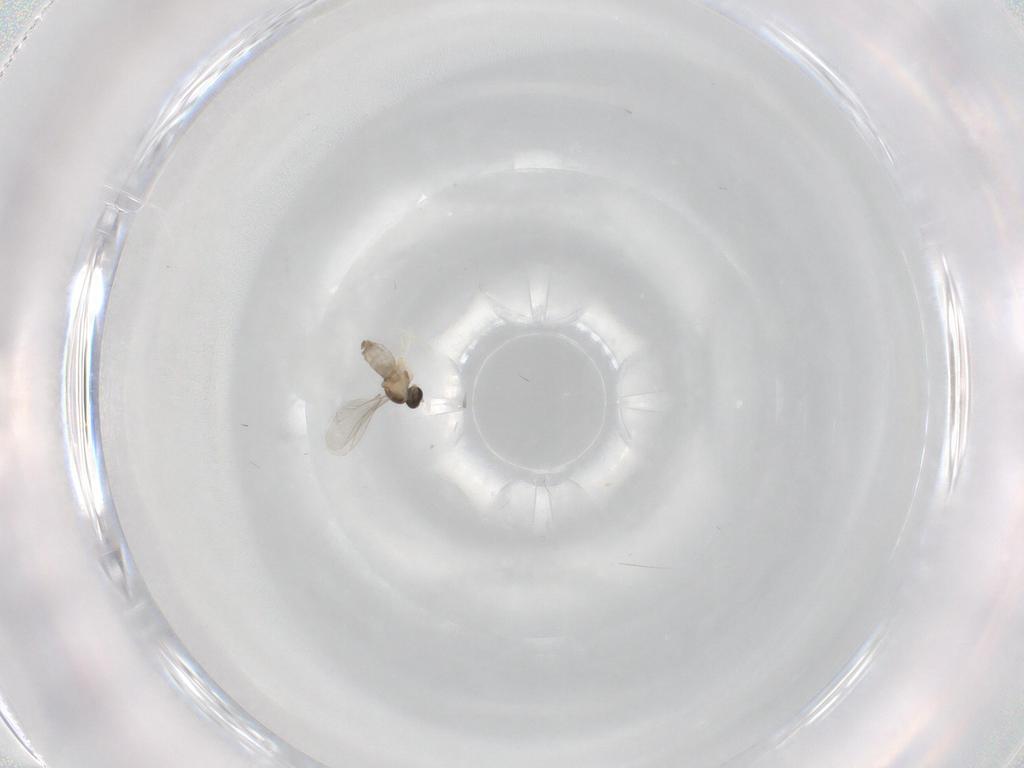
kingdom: Animalia
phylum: Arthropoda
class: Insecta
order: Diptera
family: Cecidomyiidae
